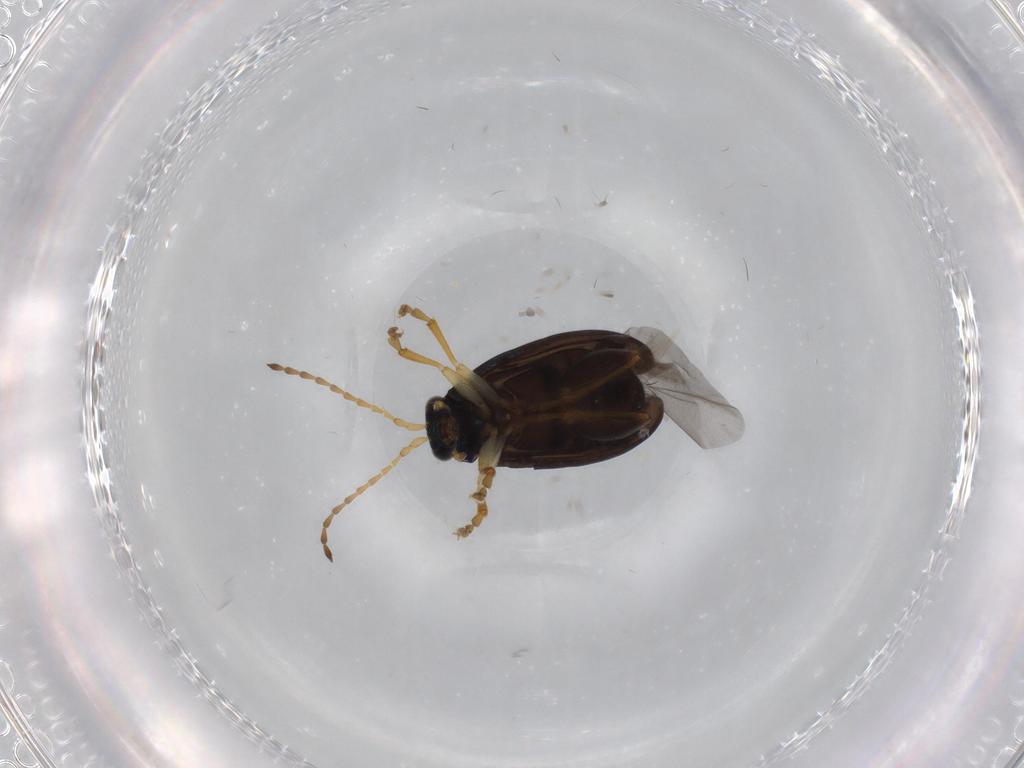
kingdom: Animalia
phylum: Arthropoda
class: Insecta
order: Coleoptera
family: Chrysomelidae
